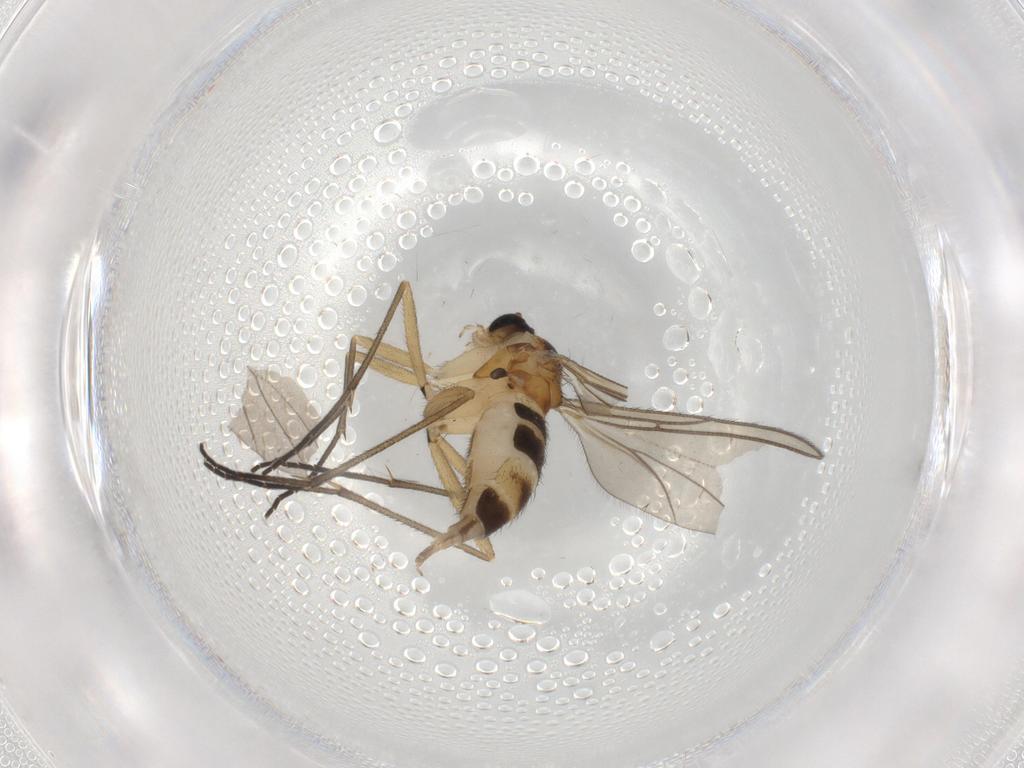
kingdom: Animalia
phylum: Arthropoda
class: Insecta
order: Diptera
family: Sciaridae
